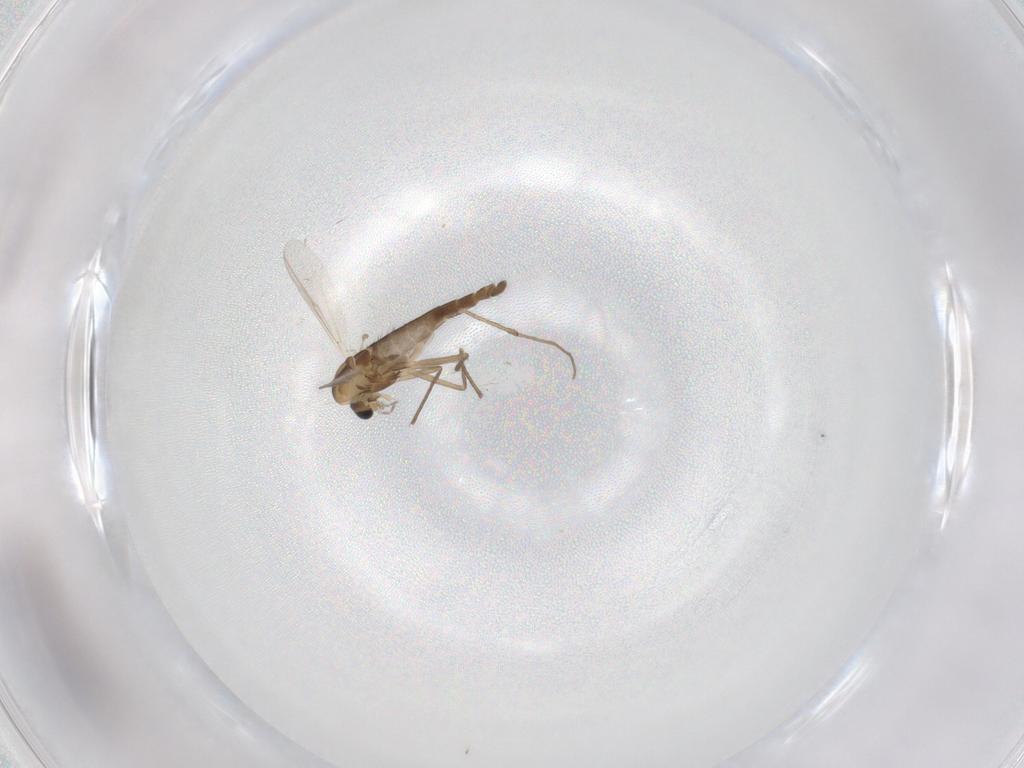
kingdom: Animalia
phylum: Arthropoda
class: Insecta
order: Diptera
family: Chironomidae
